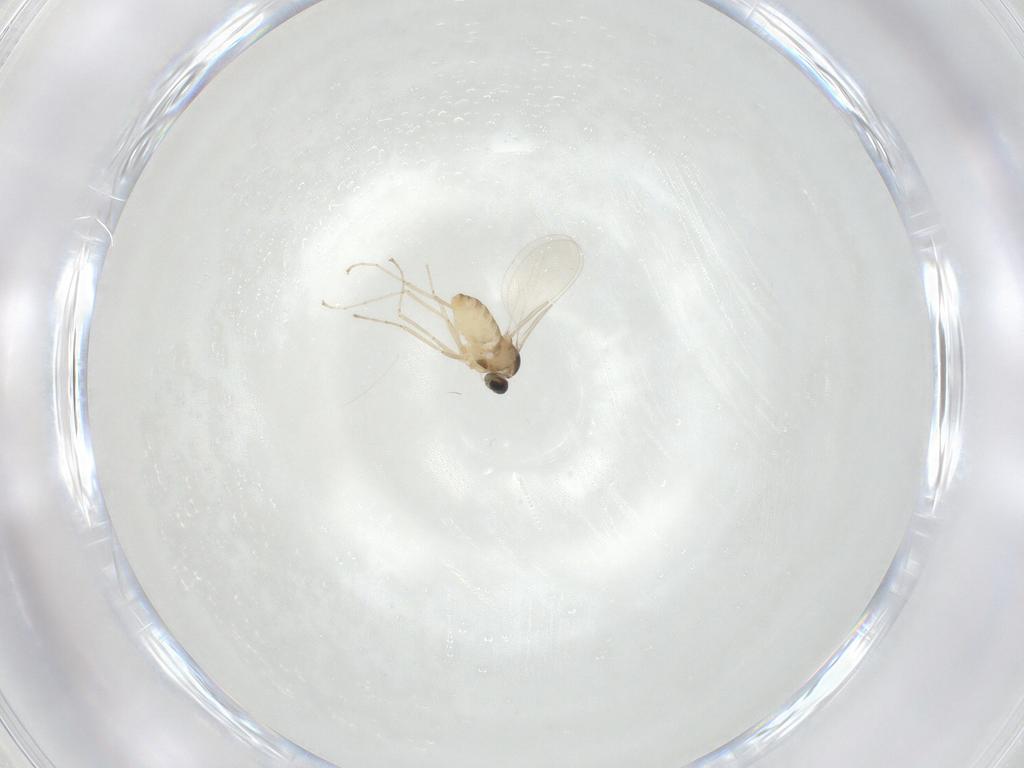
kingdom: Animalia
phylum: Arthropoda
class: Insecta
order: Diptera
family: Cecidomyiidae
